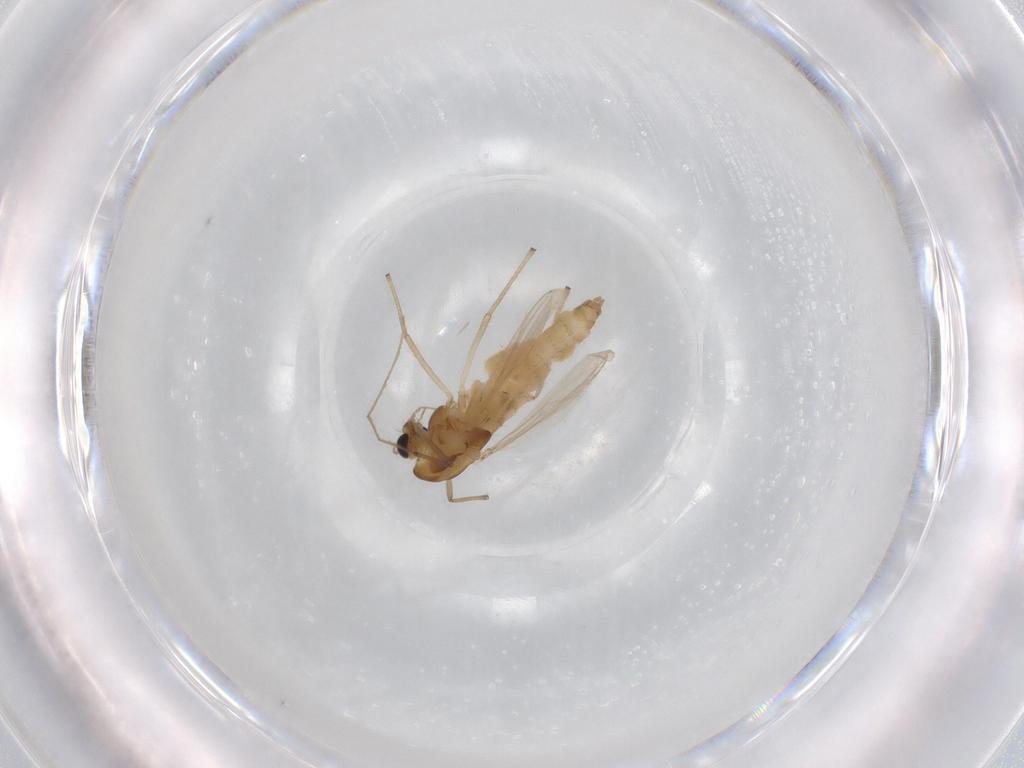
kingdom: Animalia
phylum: Arthropoda
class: Insecta
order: Diptera
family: Chironomidae
